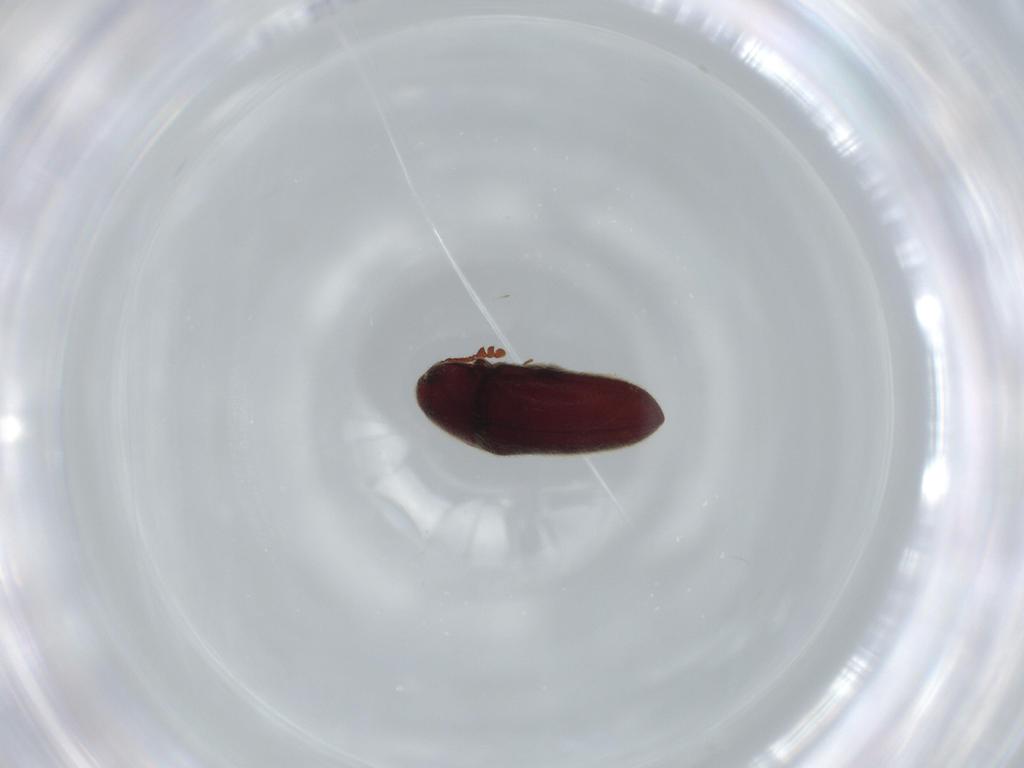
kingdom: Animalia
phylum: Arthropoda
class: Insecta
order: Coleoptera
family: Throscidae
